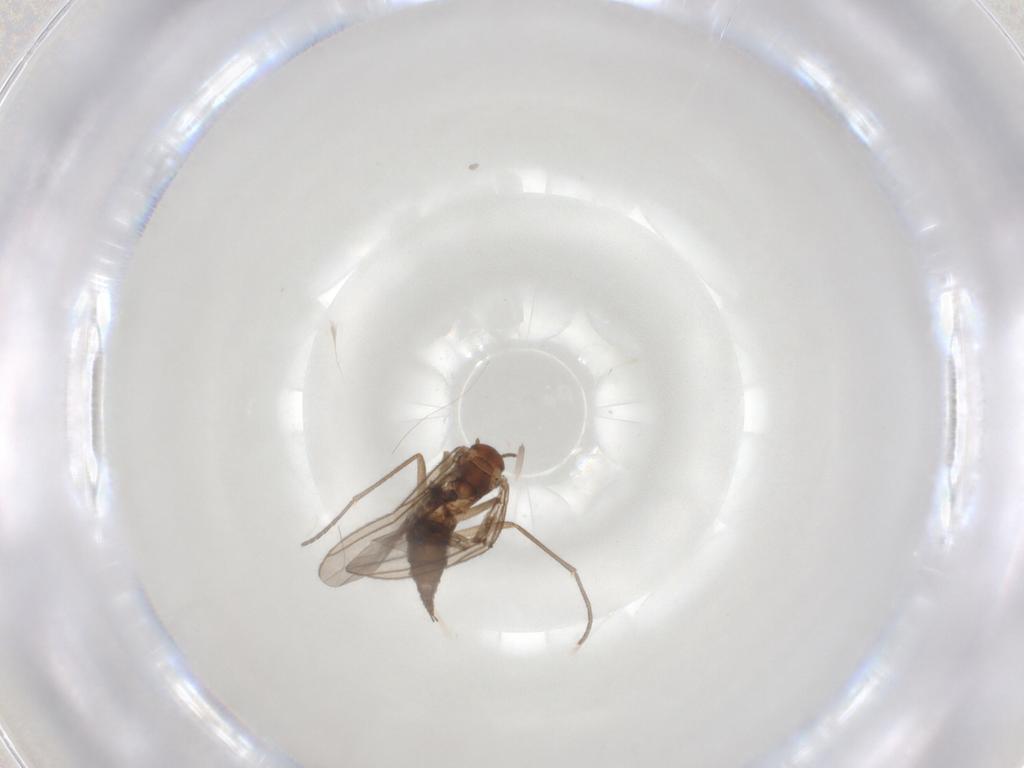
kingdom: Animalia
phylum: Arthropoda
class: Insecta
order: Diptera
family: Sciaridae
